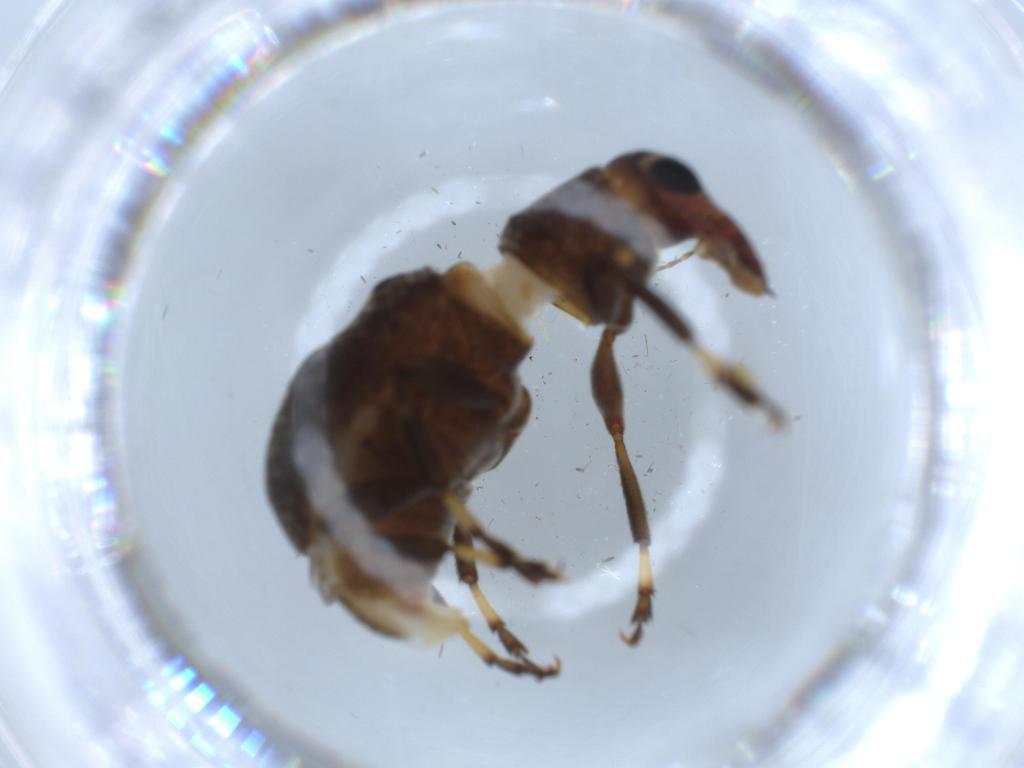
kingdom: Animalia
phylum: Arthropoda
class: Insecta
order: Coleoptera
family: Anthribidae
